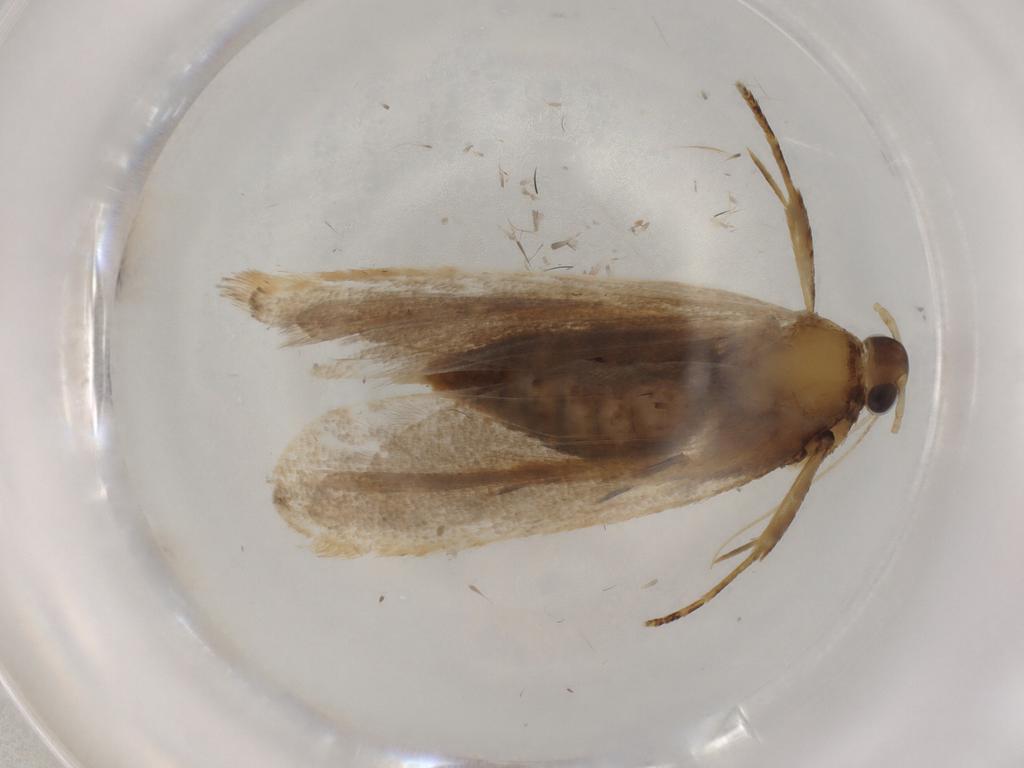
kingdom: Animalia
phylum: Arthropoda
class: Insecta
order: Lepidoptera
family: Lecithoceridae
